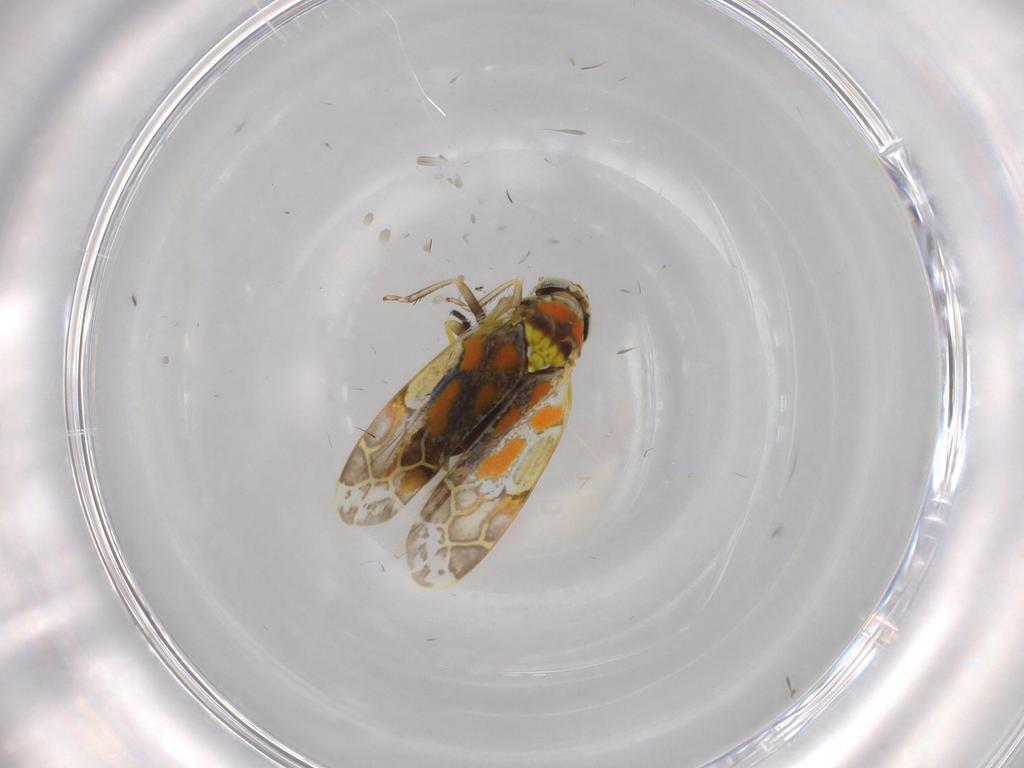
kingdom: Animalia
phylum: Arthropoda
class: Insecta
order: Hemiptera
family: Cicadellidae
